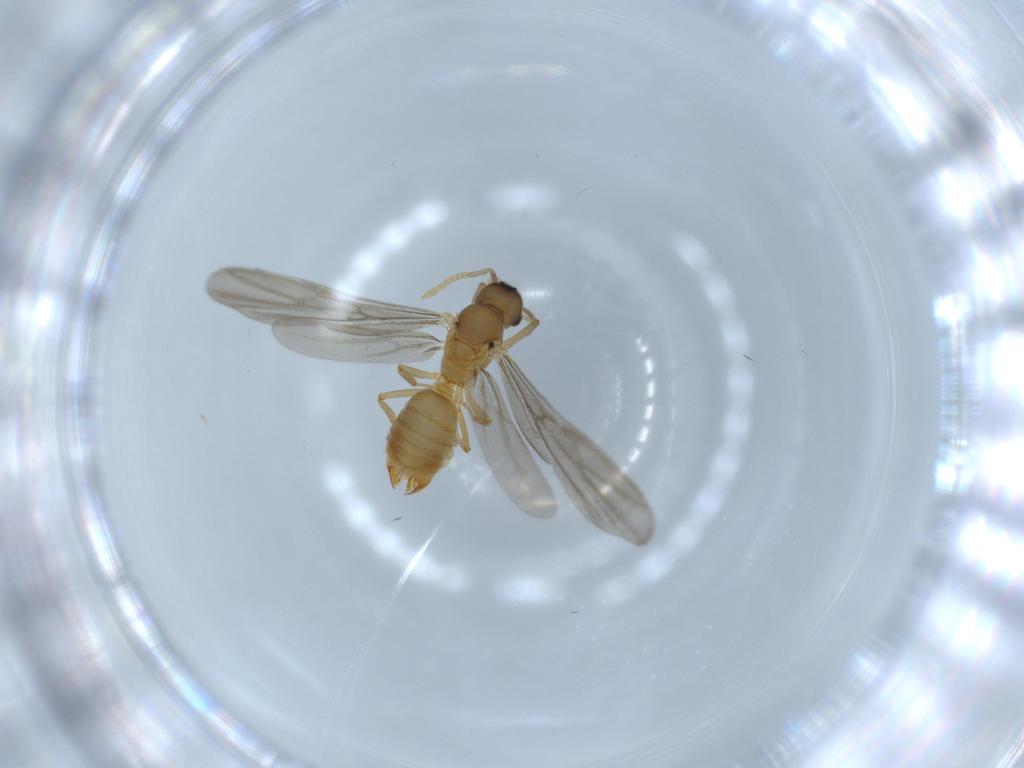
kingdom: Animalia
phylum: Arthropoda
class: Insecta
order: Hymenoptera
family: Formicidae
